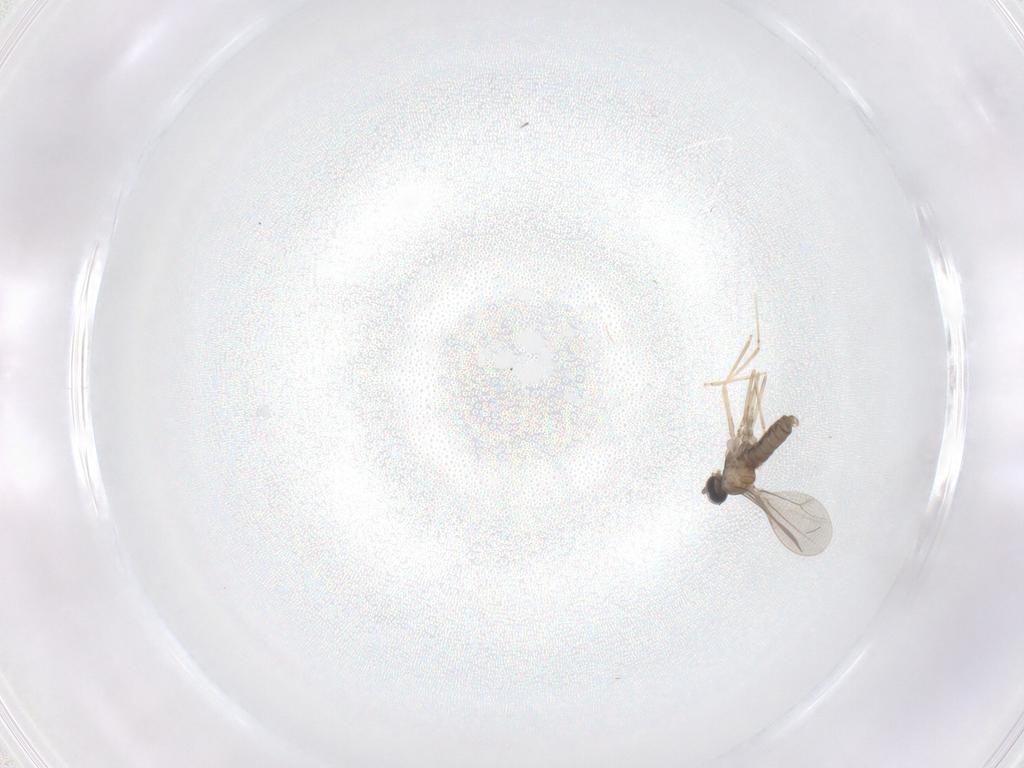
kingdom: Animalia
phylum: Arthropoda
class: Insecta
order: Diptera
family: Cecidomyiidae
